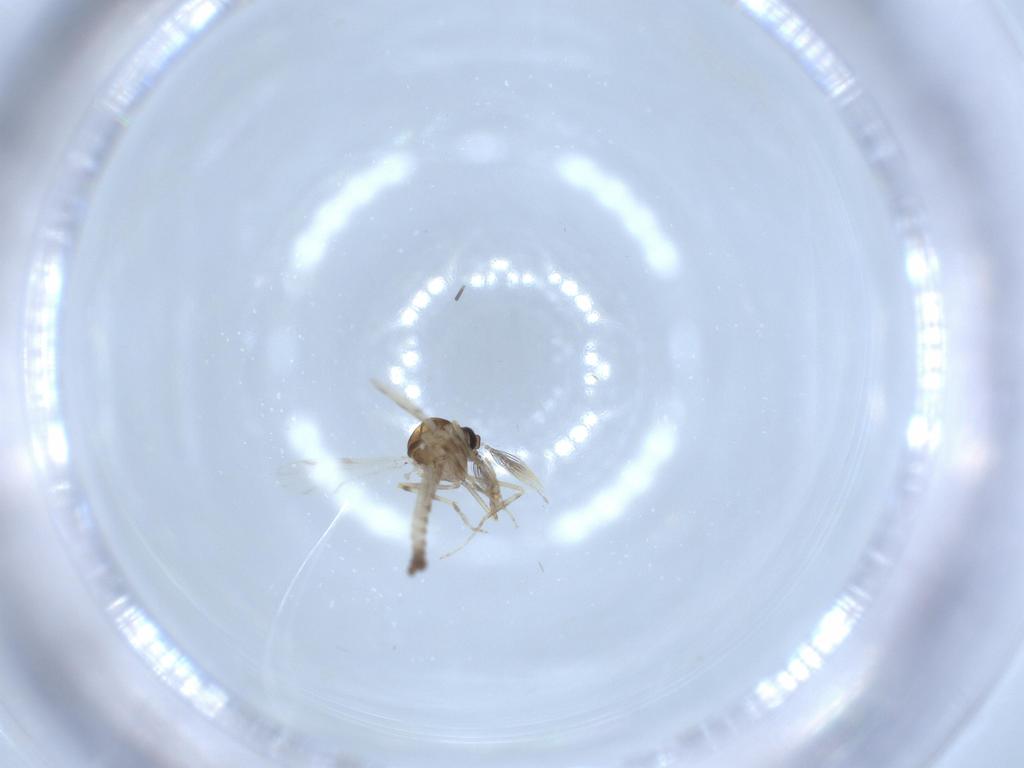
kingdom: Animalia
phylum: Arthropoda
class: Insecta
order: Diptera
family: Ceratopogonidae
